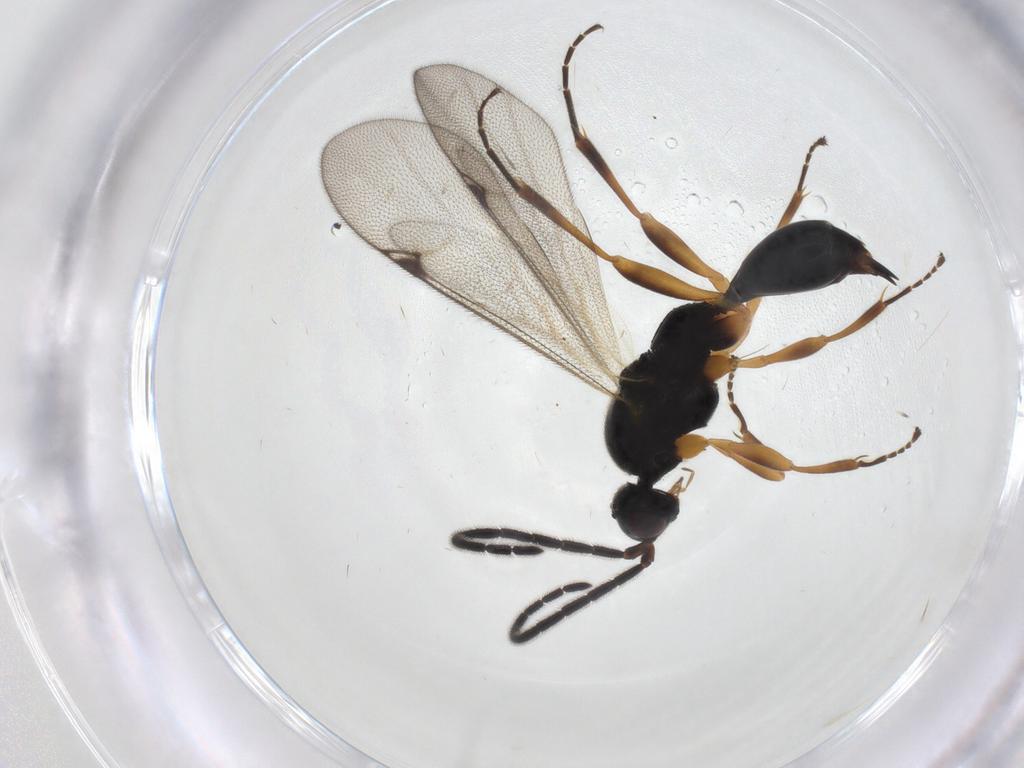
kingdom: Animalia
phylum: Arthropoda
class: Insecta
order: Hymenoptera
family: Proctotrupidae
